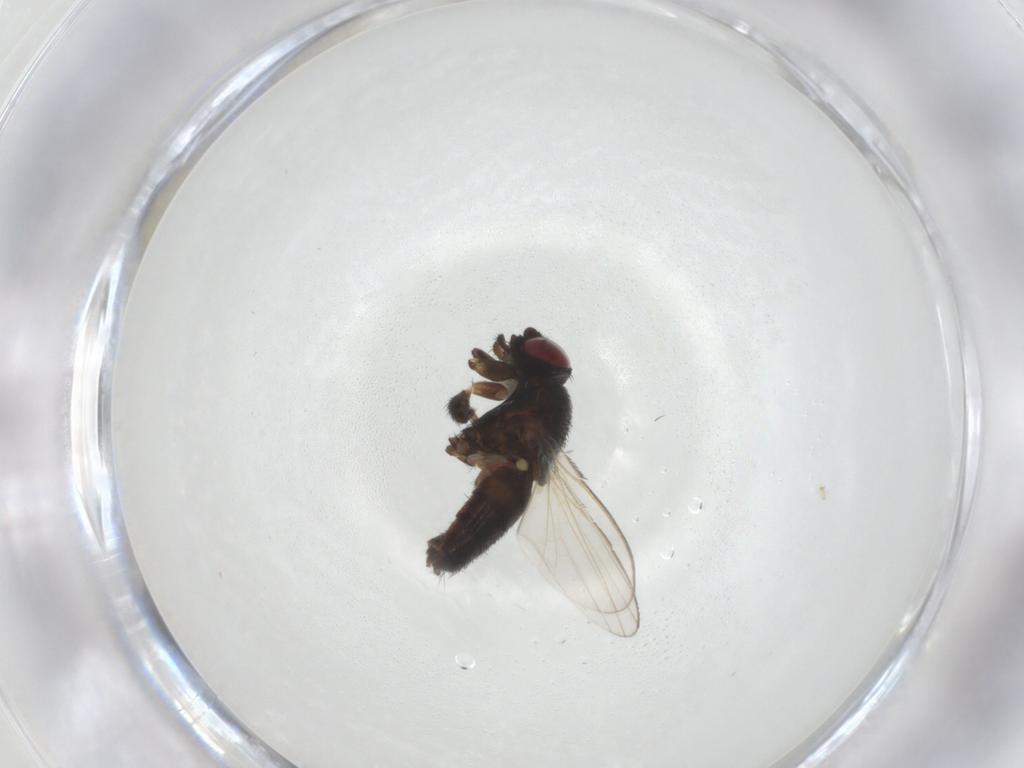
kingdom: Animalia
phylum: Arthropoda
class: Insecta
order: Diptera
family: Milichiidae
